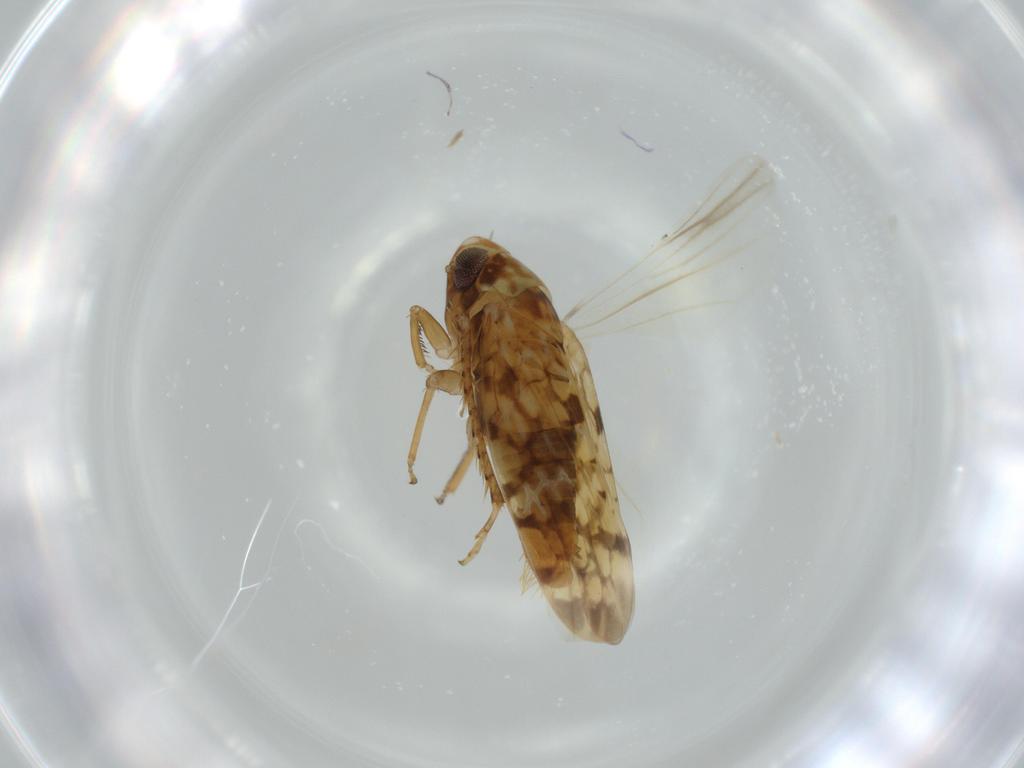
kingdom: Animalia
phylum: Arthropoda
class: Insecta
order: Hemiptera
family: Cicadellidae
